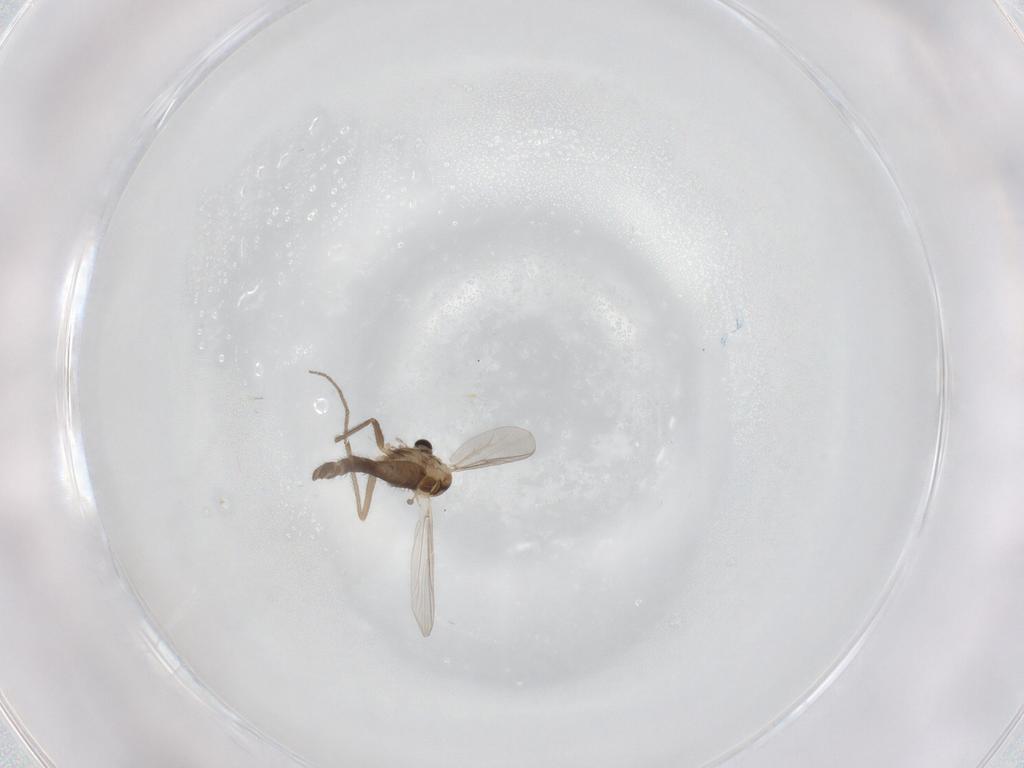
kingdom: Animalia
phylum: Arthropoda
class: Insecta
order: Diptera
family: Chironomidae
